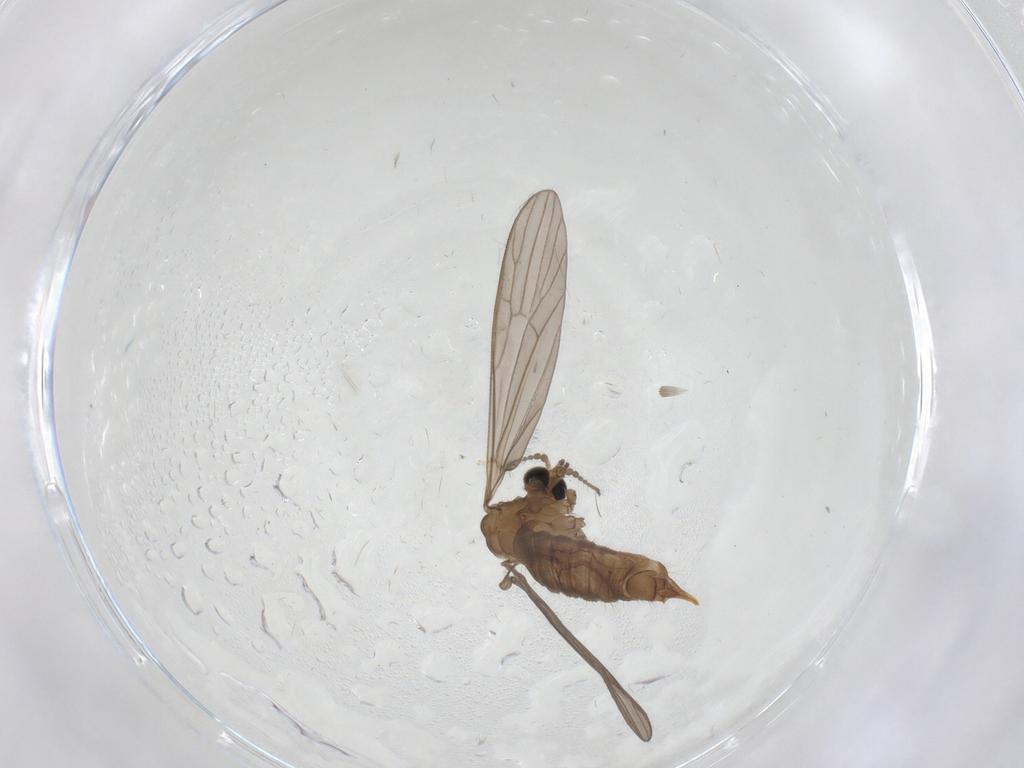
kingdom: Animalia
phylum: Arthropoda
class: Insecta
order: Diptera
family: Limoniidae
